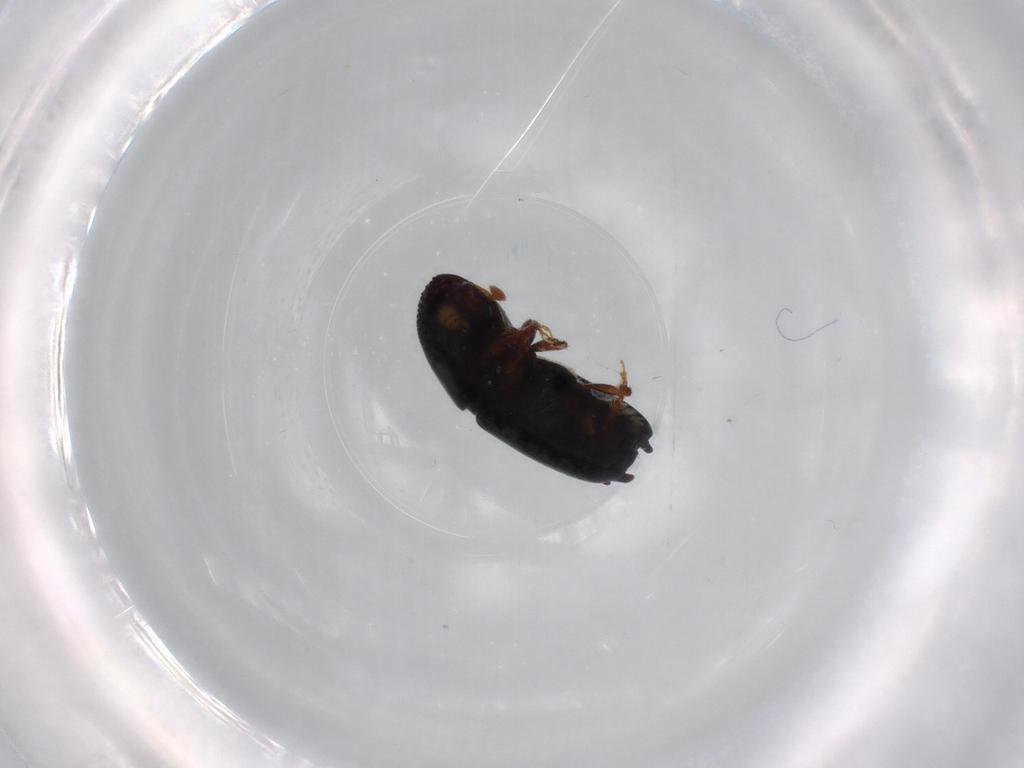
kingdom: Animalia
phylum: Arthropoda
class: Insecta
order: Coleoptera
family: Curculionidae
